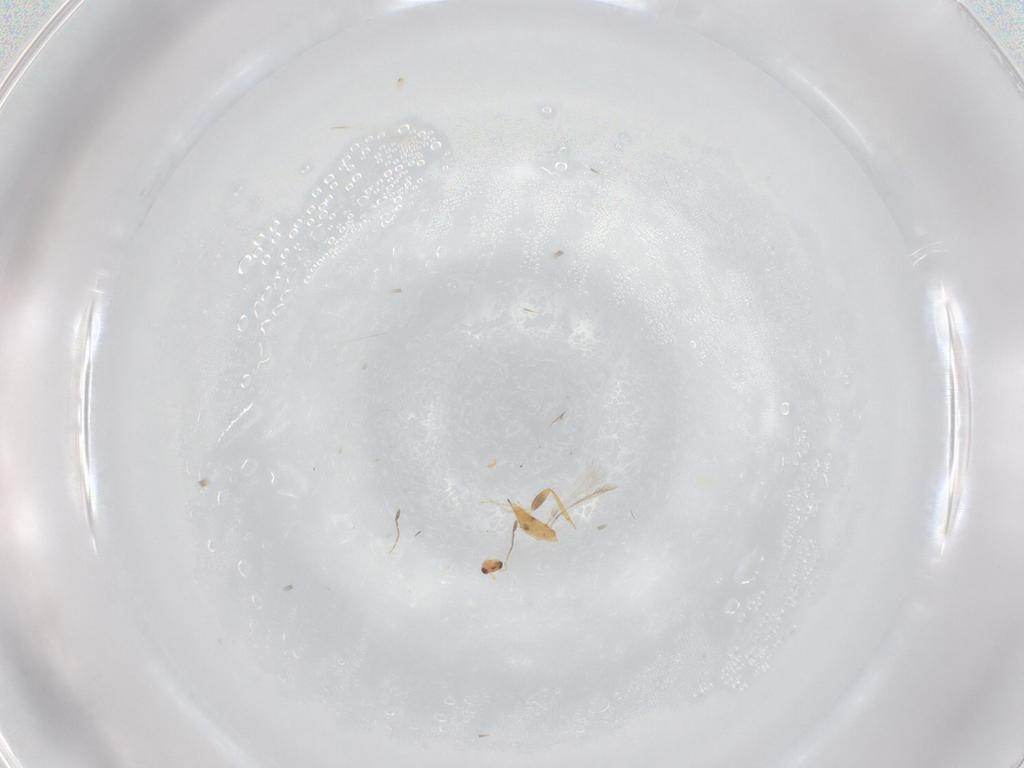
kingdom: Animalia
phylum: Arthropoda
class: Insecta
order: Hymenoptera
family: Mymaridae
